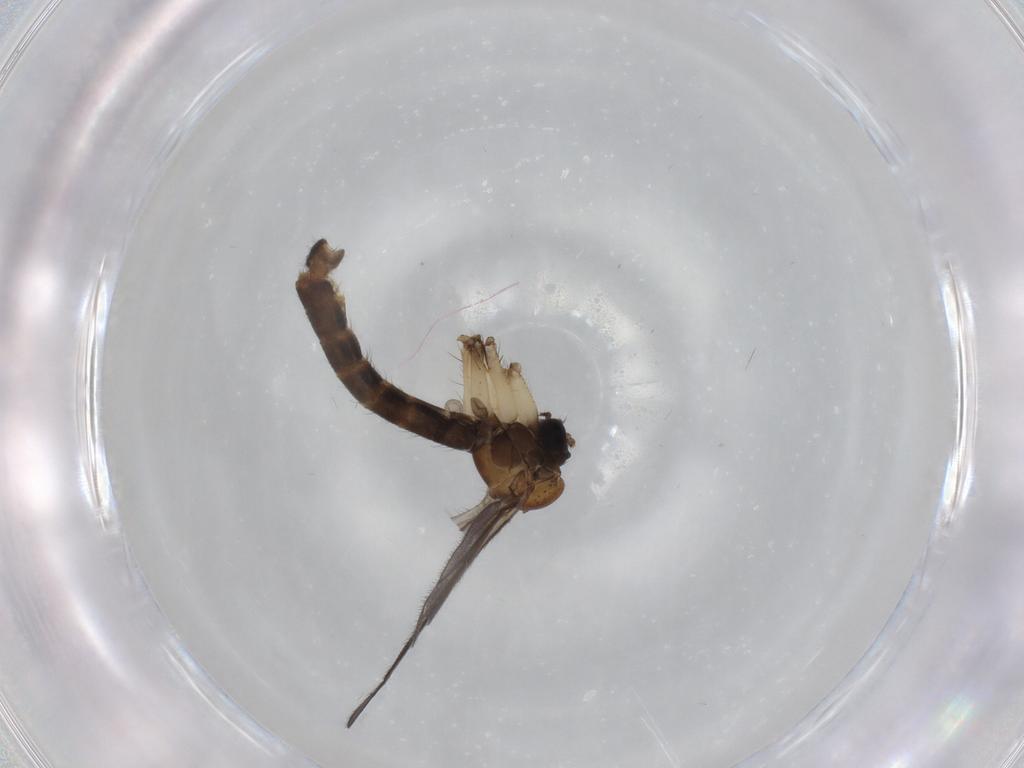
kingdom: Animalia
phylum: Arthropoda
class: Insecta
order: Diptera
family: Ditomyiidae
